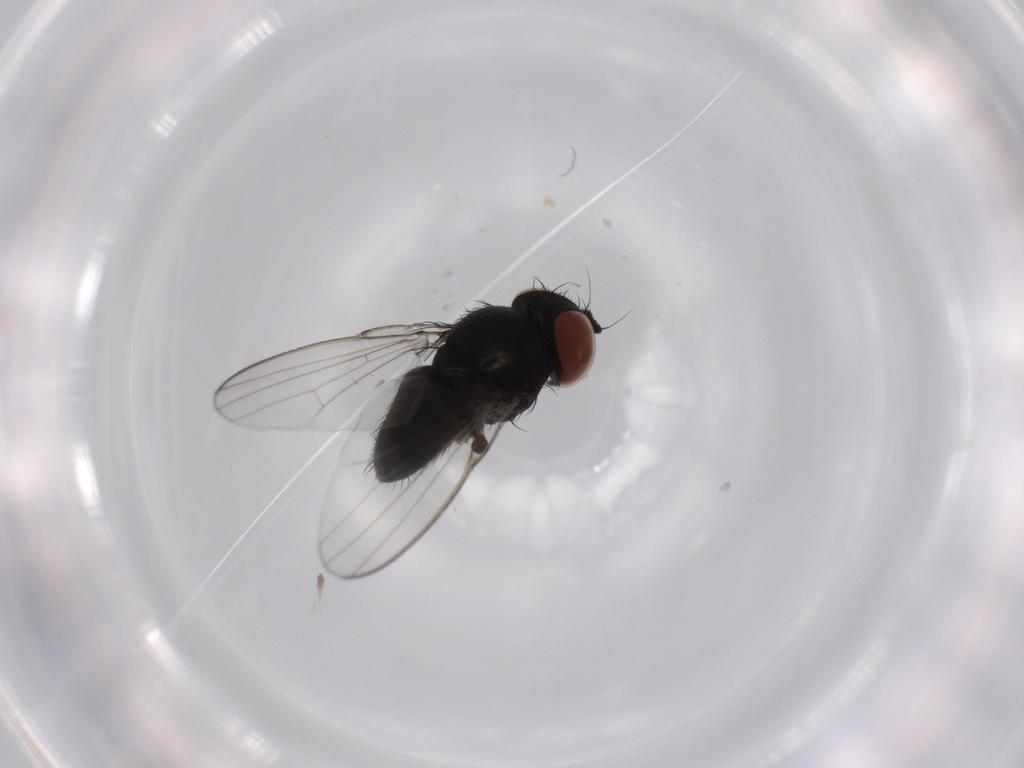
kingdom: Animalia
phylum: Arthropoda
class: Insecta
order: Diptera
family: Milichiidae
